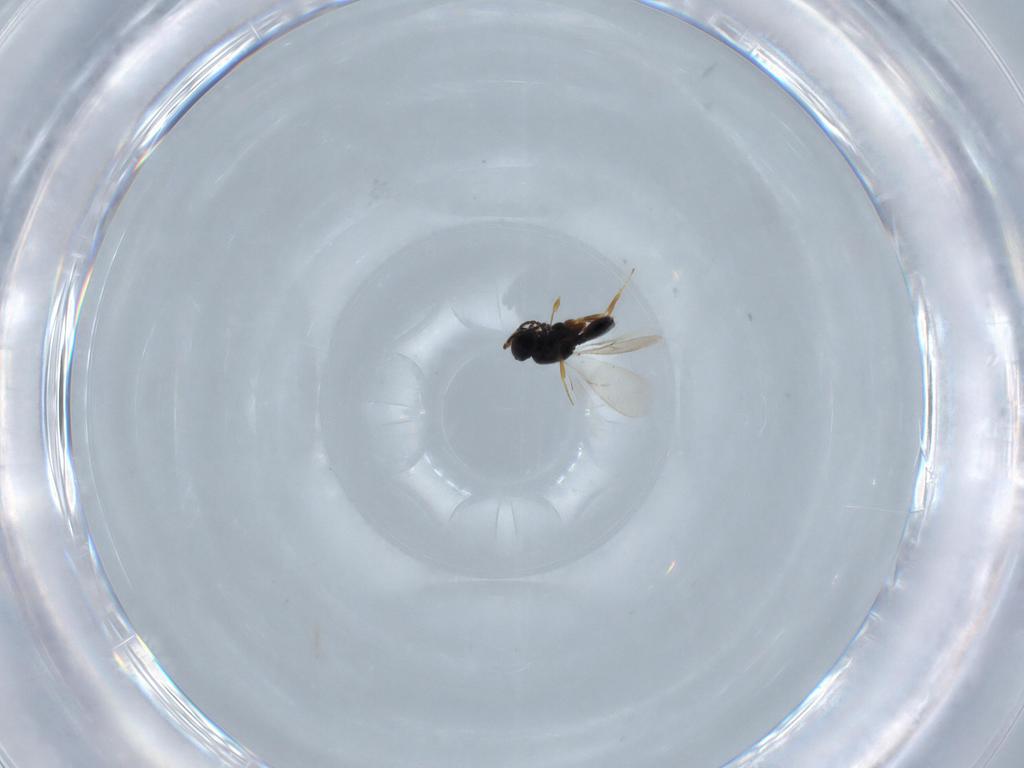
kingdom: Animalia
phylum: Arthropoda
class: Insecta
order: Hymenoptera
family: Scelionidae
